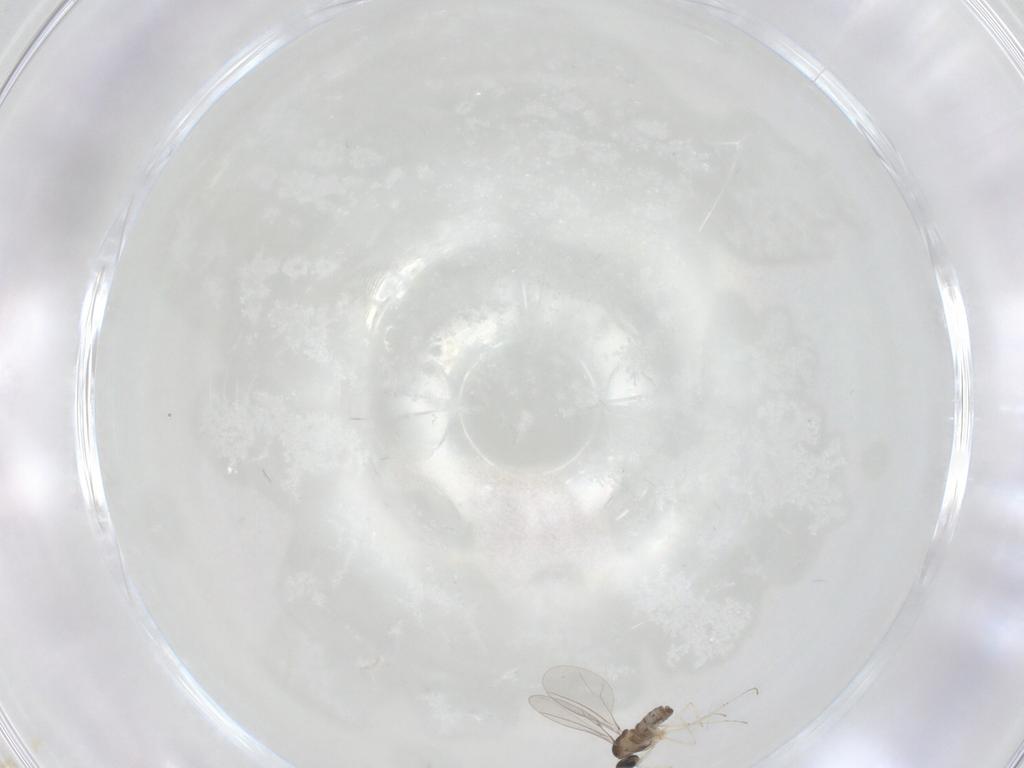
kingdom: Animalia
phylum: Arthropoda
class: Insecta
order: Diptera
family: Cecidomyiidae
